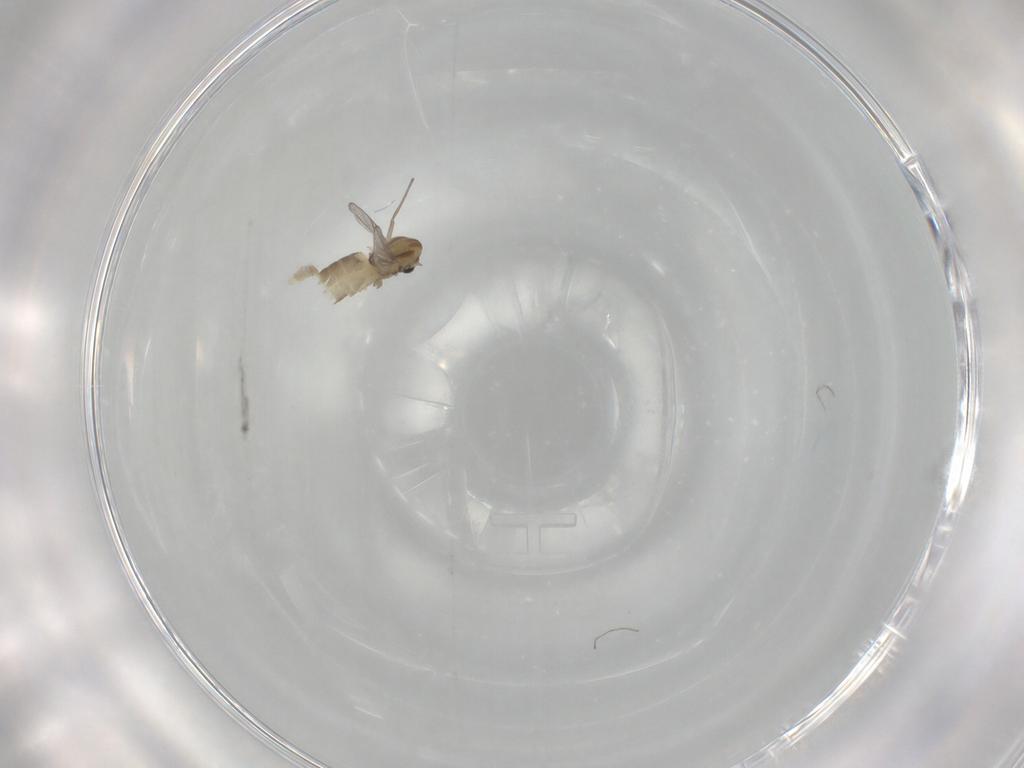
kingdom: Animalia
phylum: Arthropoda
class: Insecta
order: Diptera
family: Chironomidae
